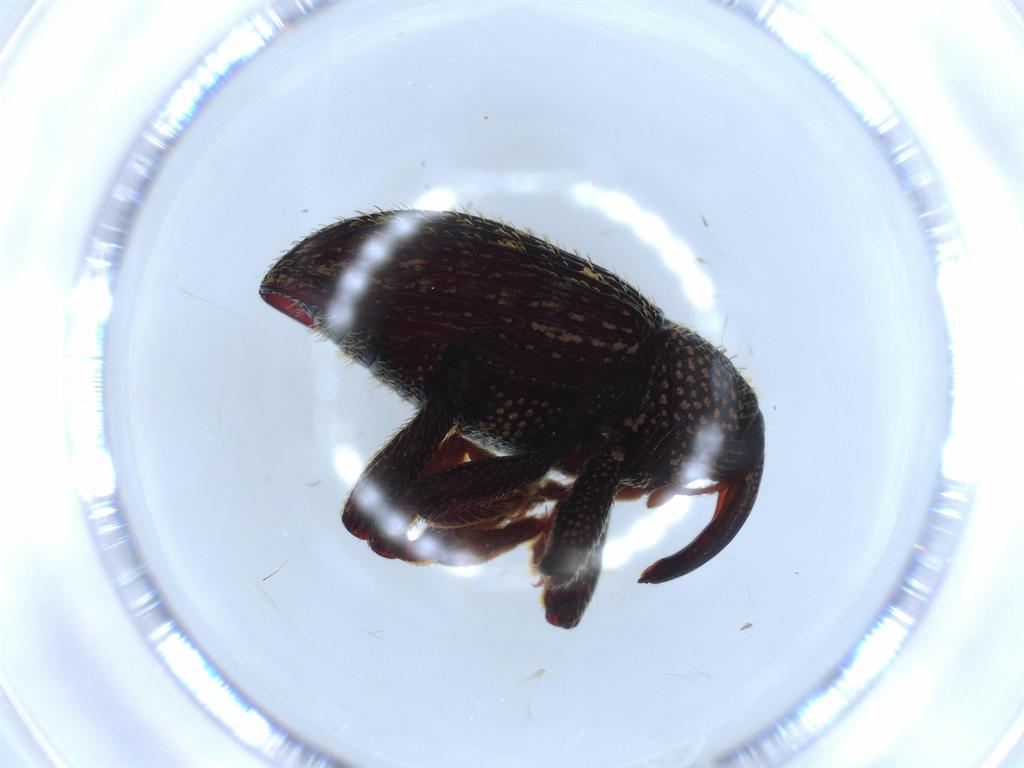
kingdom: Animalia
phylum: Arthropoda
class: Insecta
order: Coleoptera
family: Curculionidae
